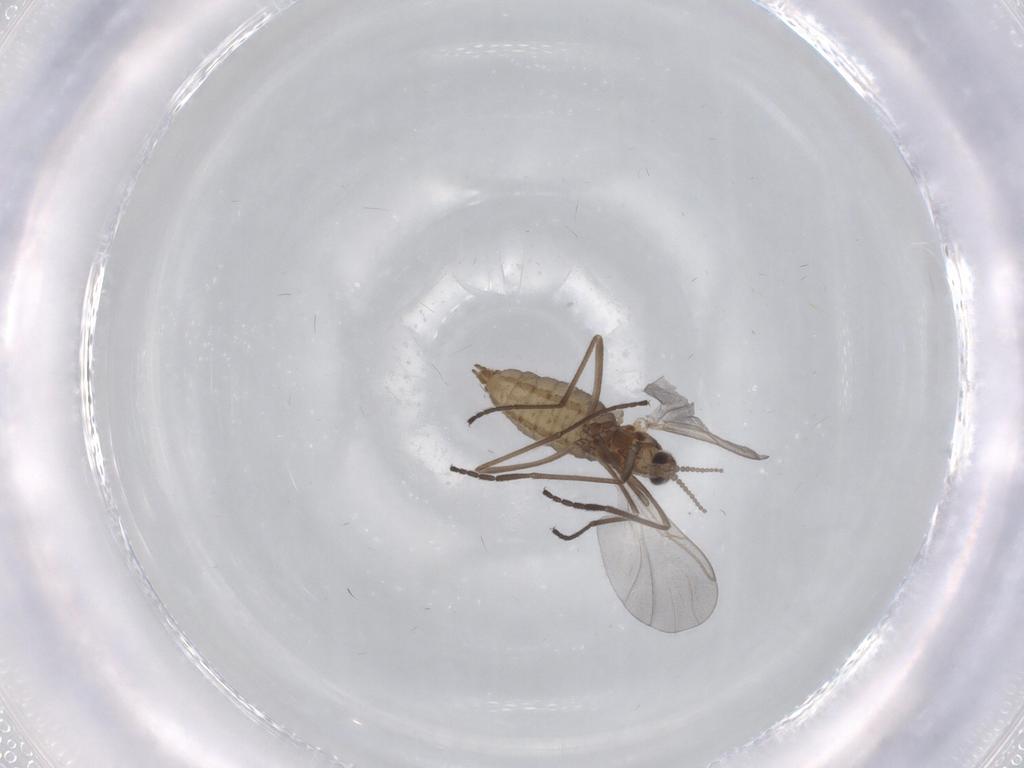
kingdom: Animalia
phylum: Arthropoda
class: Insecta
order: Diptera
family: Cecidomyiidae
